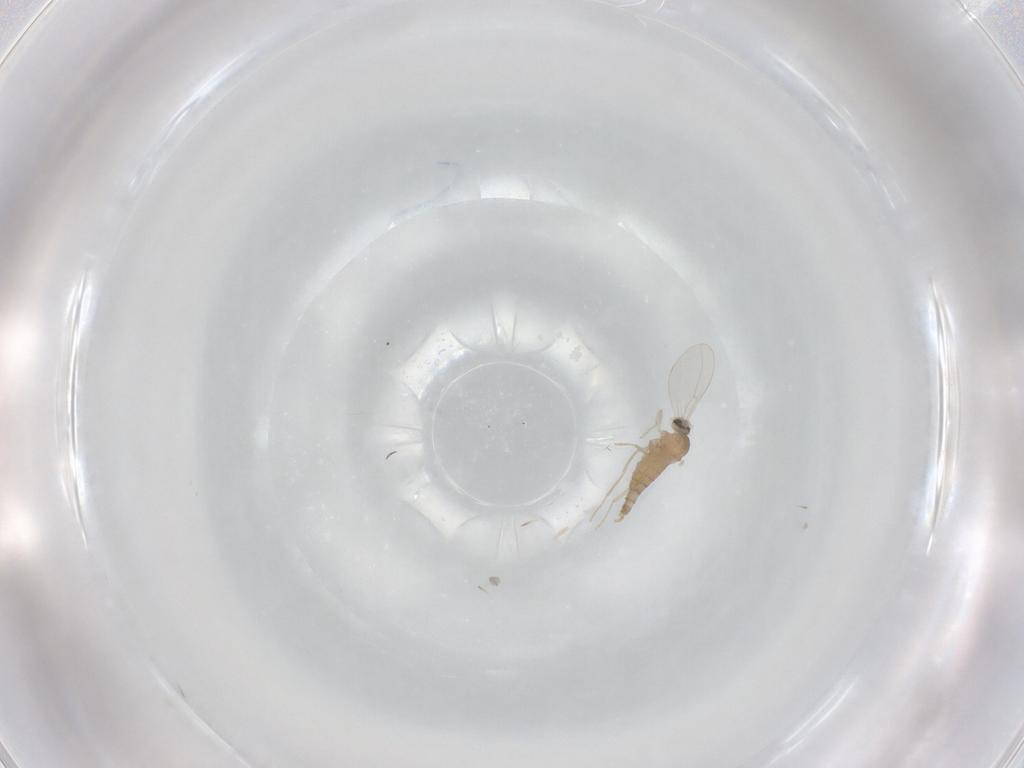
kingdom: Animalia
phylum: Arthropoda
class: Insecta
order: Diptera
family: Cecidomyiidae
